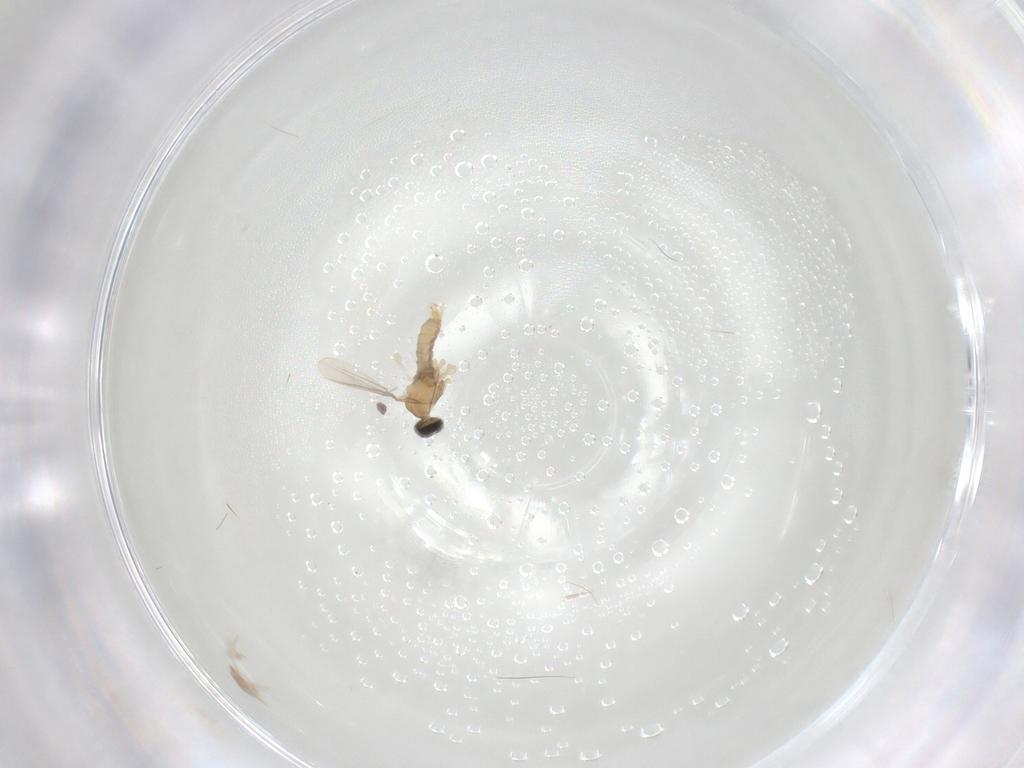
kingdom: Animalia
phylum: Arthropoda
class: Insecta
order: Diptera
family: Cecidomyiidae
